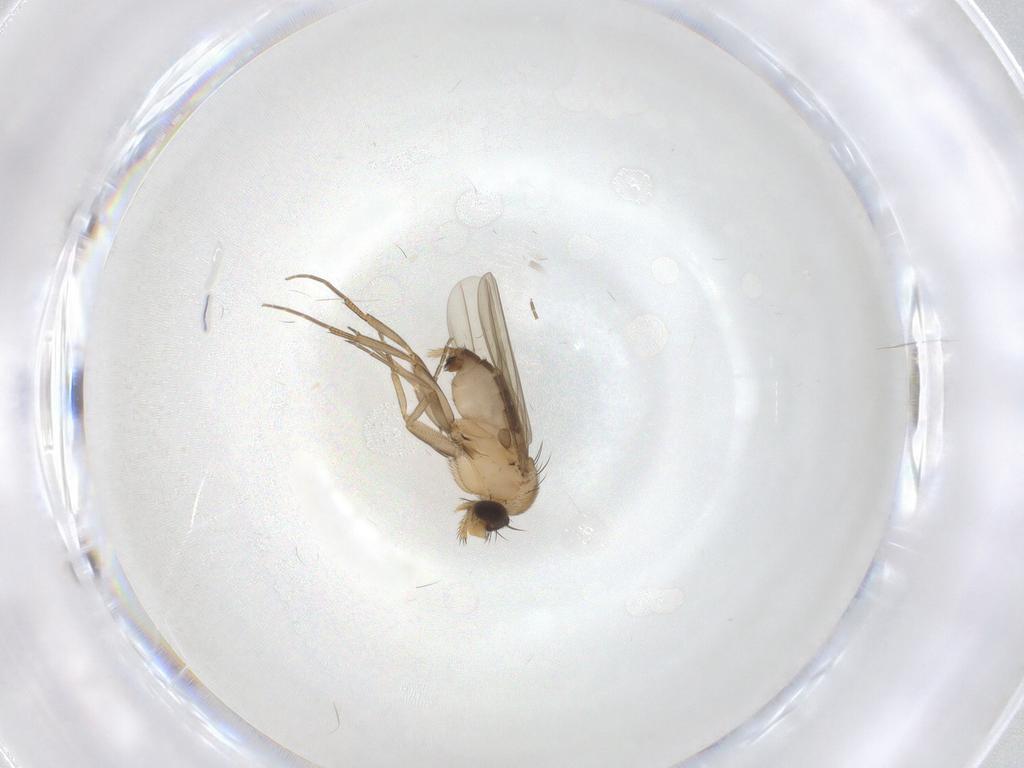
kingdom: Animalia
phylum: Arthropoda
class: Insecta
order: Diptera
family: Phoridae
